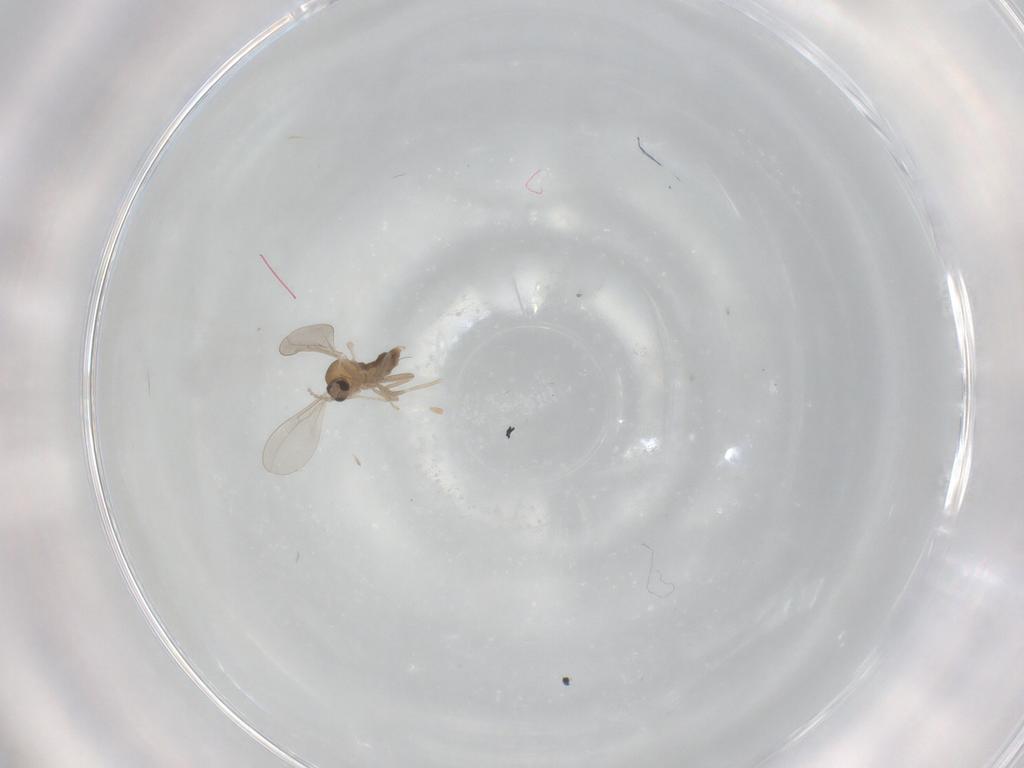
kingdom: Animalia
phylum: Arthropoda
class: Insecta
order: Diptera
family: Cecidomyiidae
